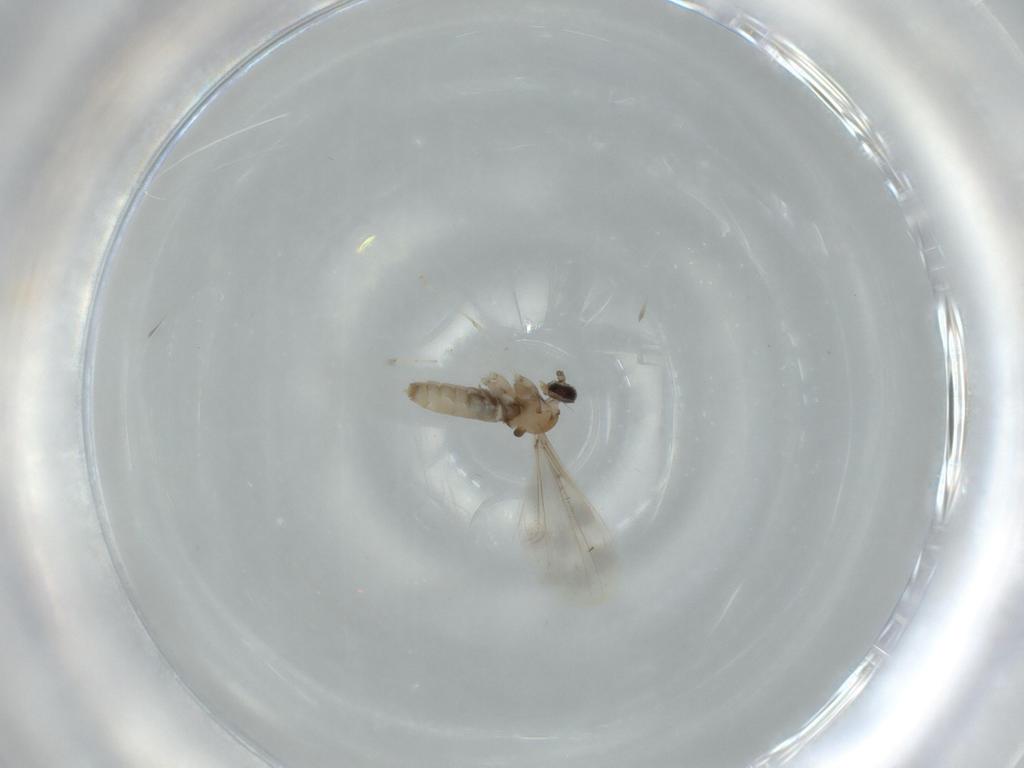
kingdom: Animalia
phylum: Arthropoda
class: Insecta
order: Diptera
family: Cecidomyiidae
